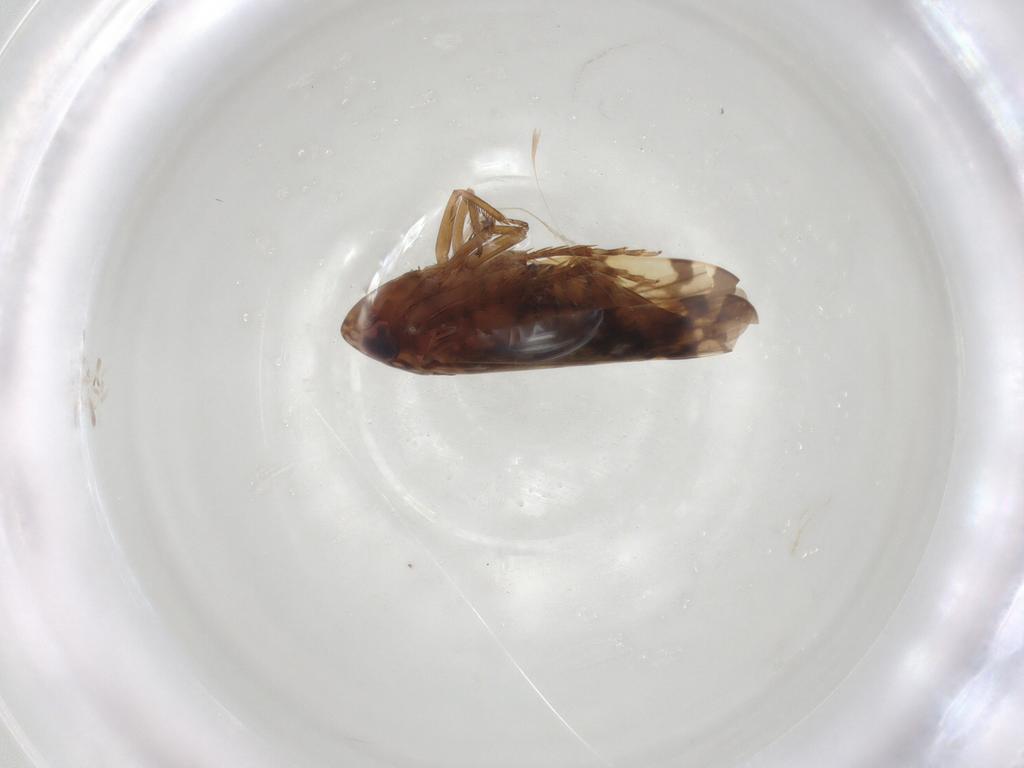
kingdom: Animalia
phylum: Arthropoda
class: Insecta
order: Hemiptera
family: Cicadellidae
